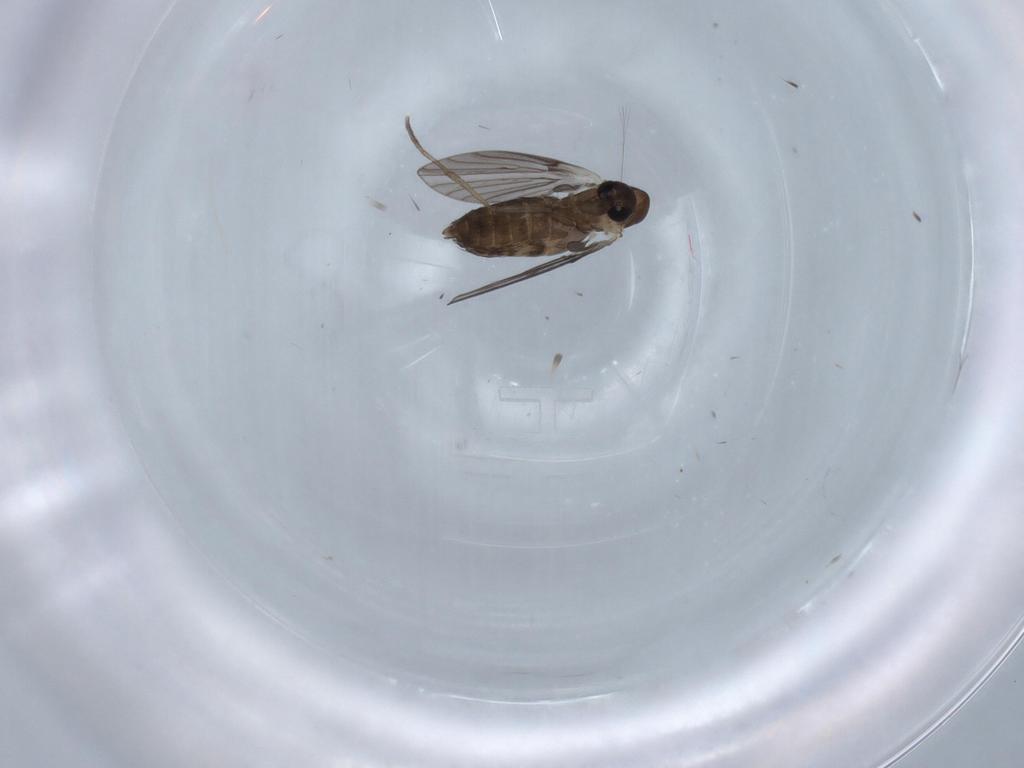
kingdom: Animalia
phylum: Arthropoda
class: Insecta
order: Diptera
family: Psychodidae
